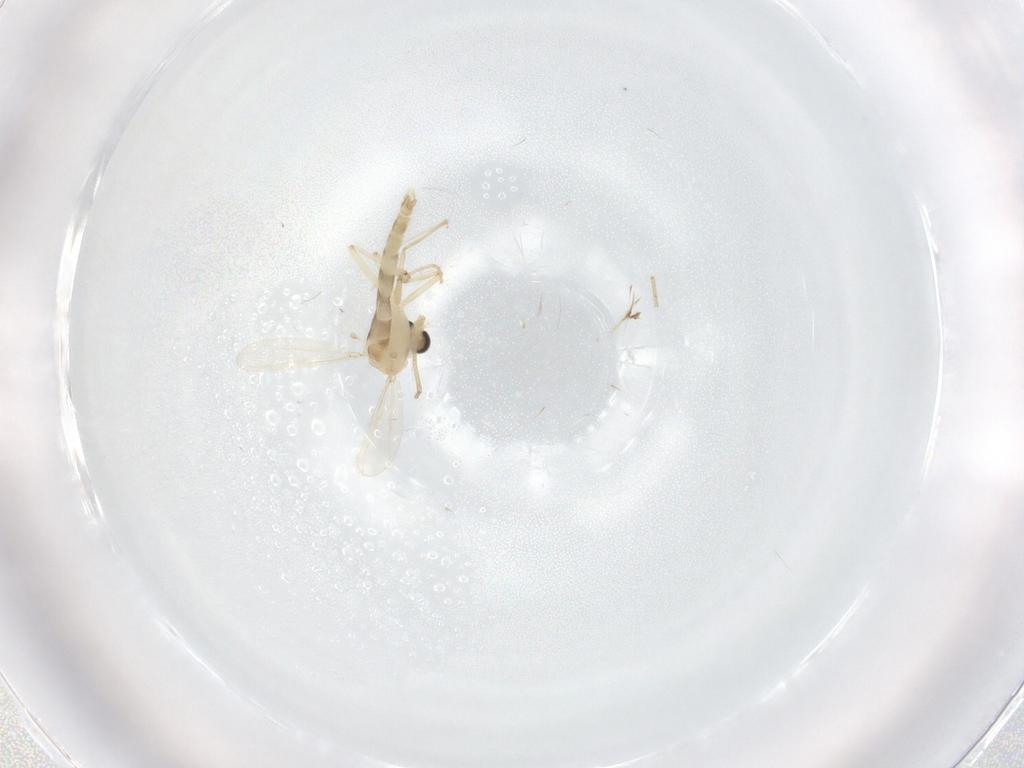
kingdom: Animalia
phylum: Arthropoda
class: Insecta
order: Diptera
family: Chironomidae
